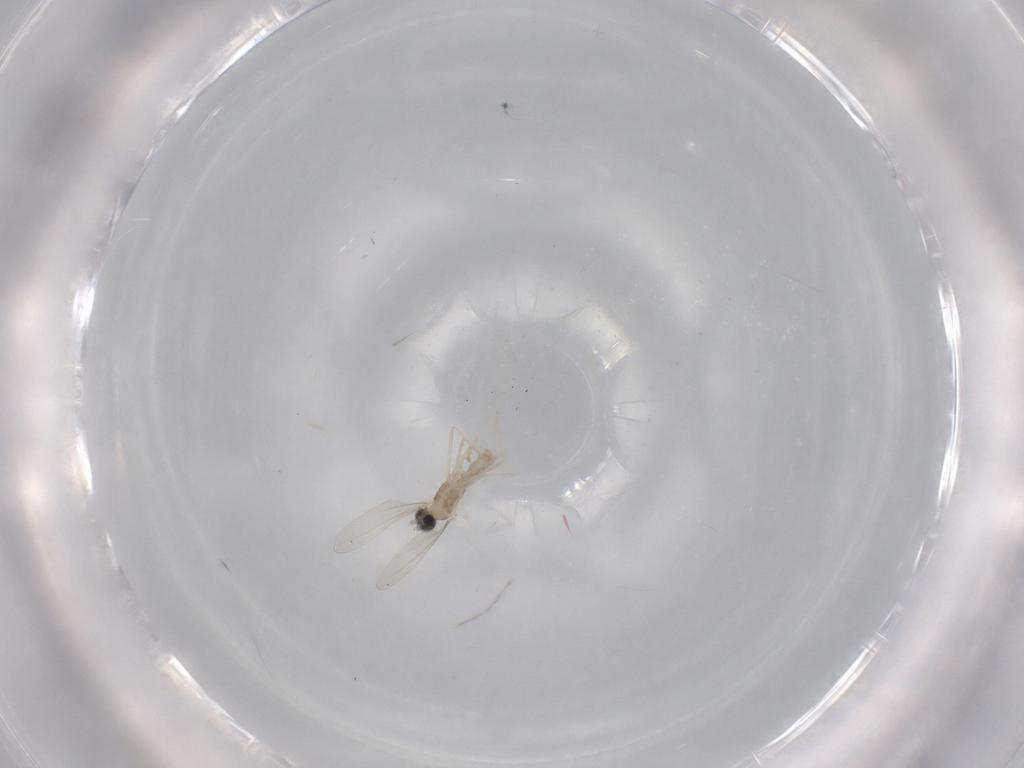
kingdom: Animalia
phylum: Arthropoda
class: Insecta
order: Diptera
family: Cecidomyiidae
